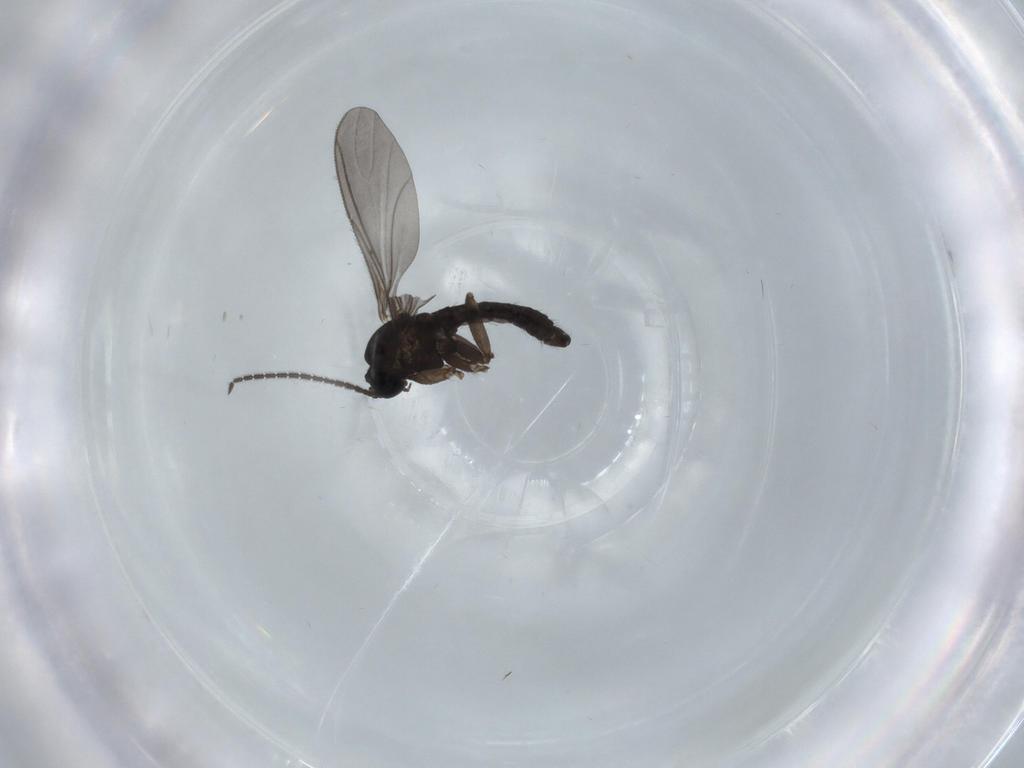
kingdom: Animalia
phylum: Arthropoda
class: Insecta
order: Diptera
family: Sciaridae
